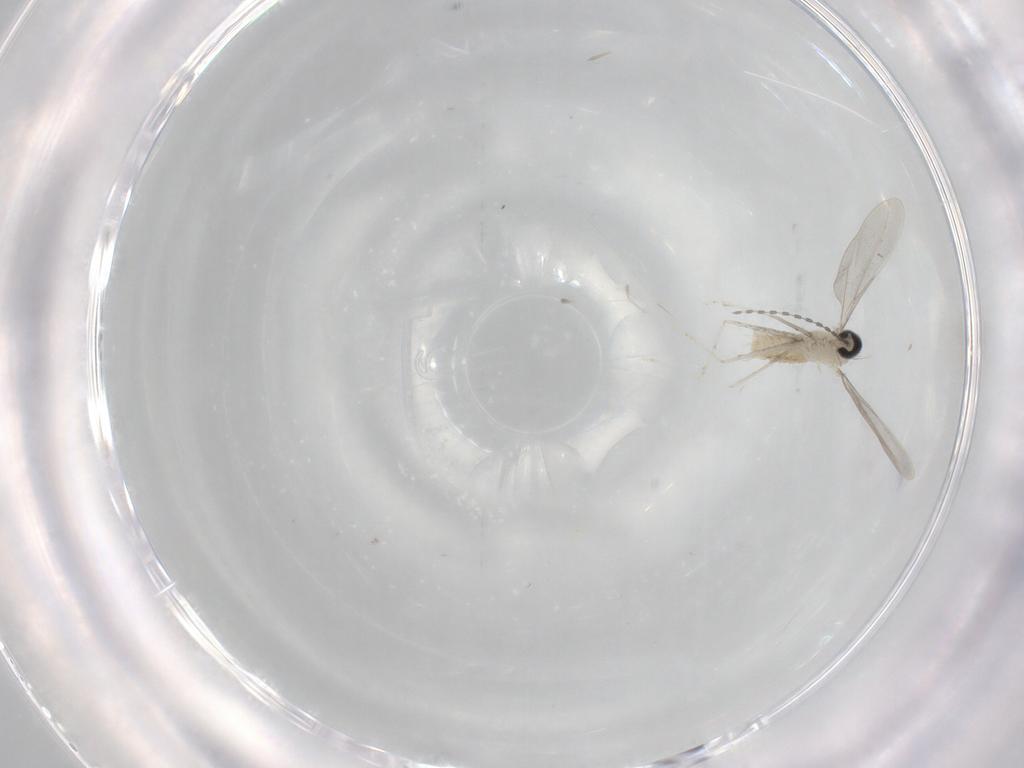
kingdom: Animalia
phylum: Arthropoda
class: Insecta
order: Diptera
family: Cecidomyiidae
